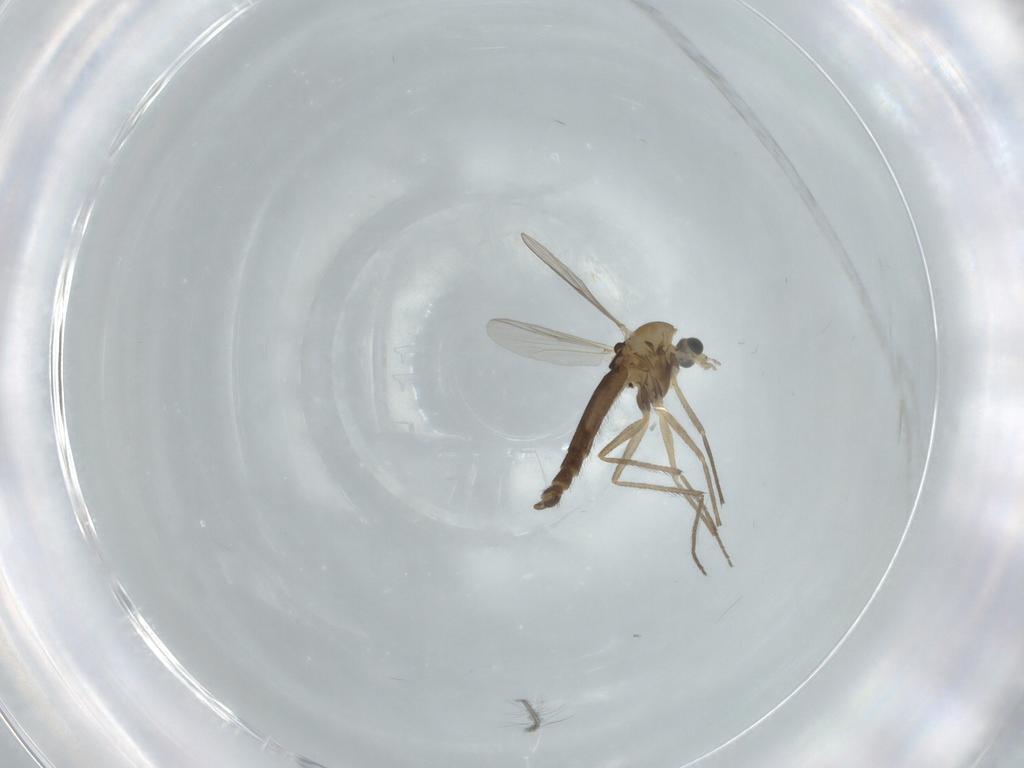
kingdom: Animalia
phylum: Arthropoda
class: Insecta
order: Diptera
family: Chironomidae
